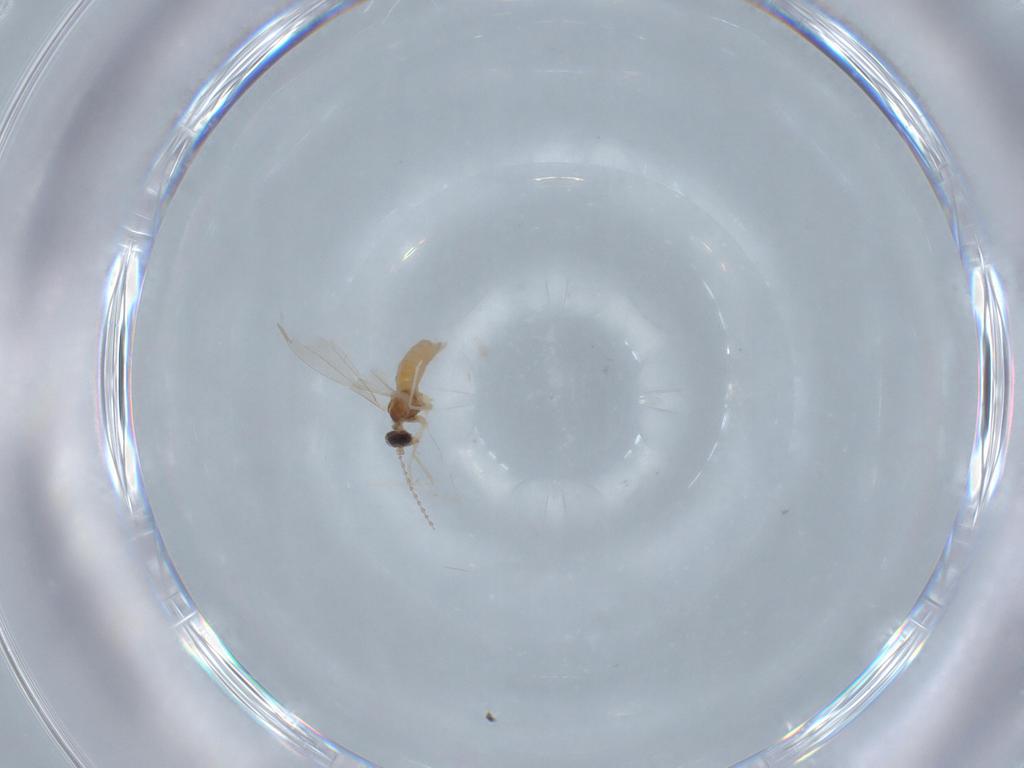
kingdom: Animalia
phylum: Arthropoda
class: Insecta
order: Diptera
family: Cecidomyiidae
